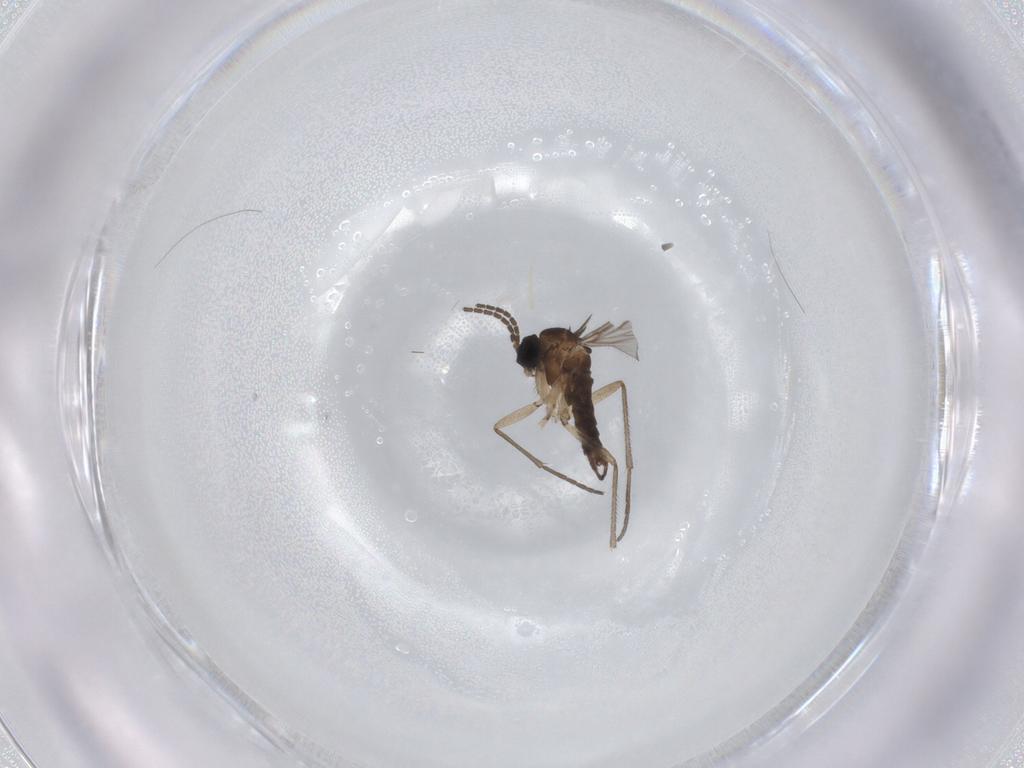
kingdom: Animalia
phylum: Arthropoda
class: Insecta
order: Diptera
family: Sciaridae
